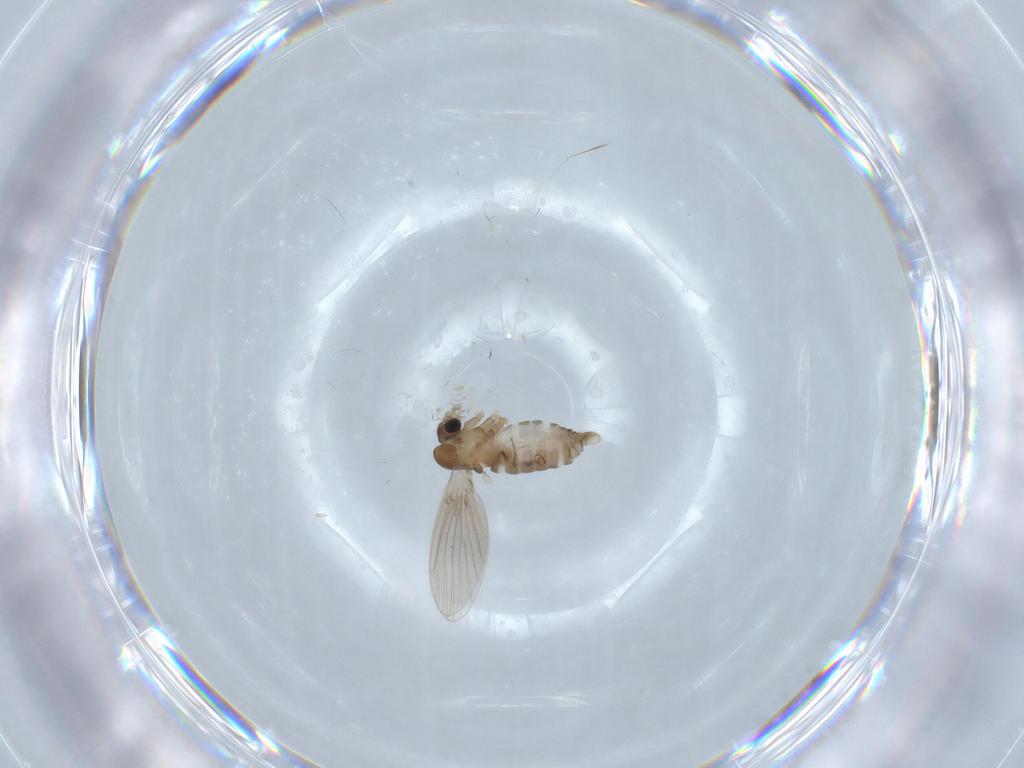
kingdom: Animalia
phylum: Arthropoda
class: Insecta
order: Diptera
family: Psychodidae
